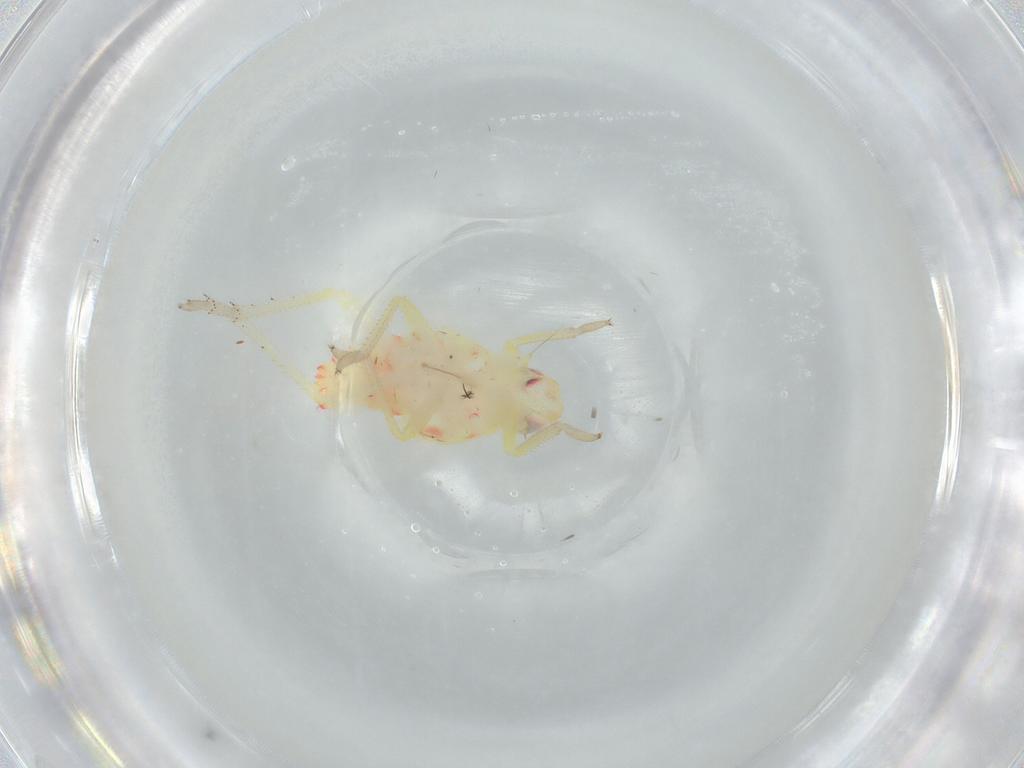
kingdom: Animalia
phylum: Arthropoda
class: Insecta
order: Hemiptera
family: Tropiduchidae
